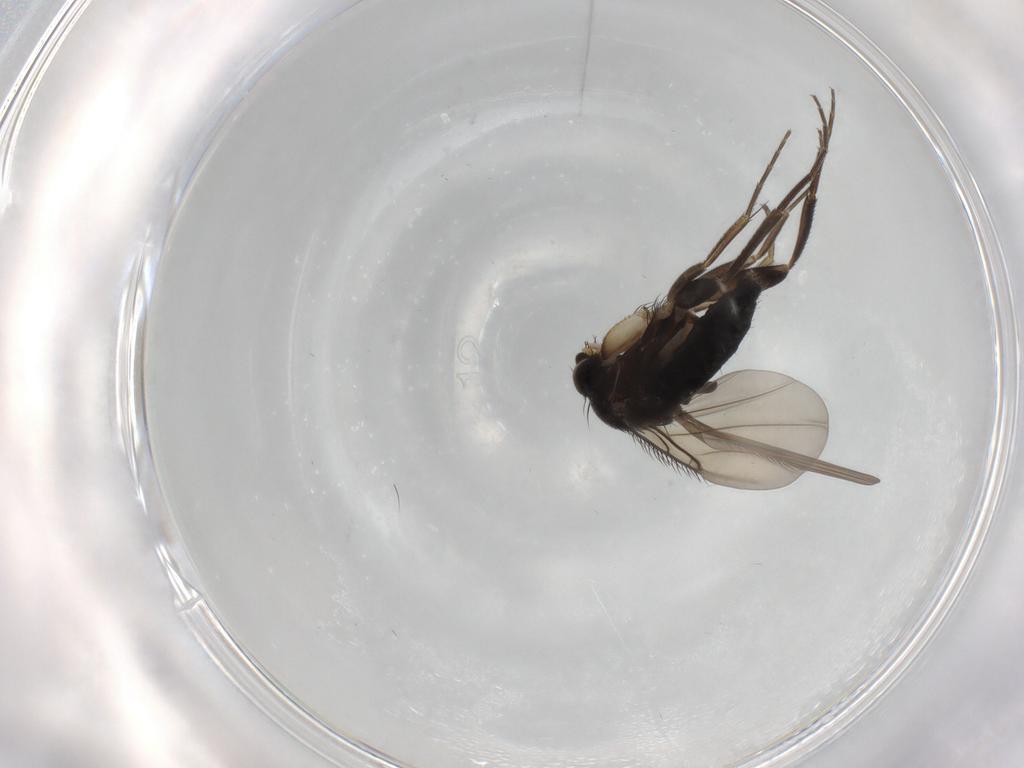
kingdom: Animalia
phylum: Arthropoda
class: Insecta
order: Diptera
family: Phoridae
